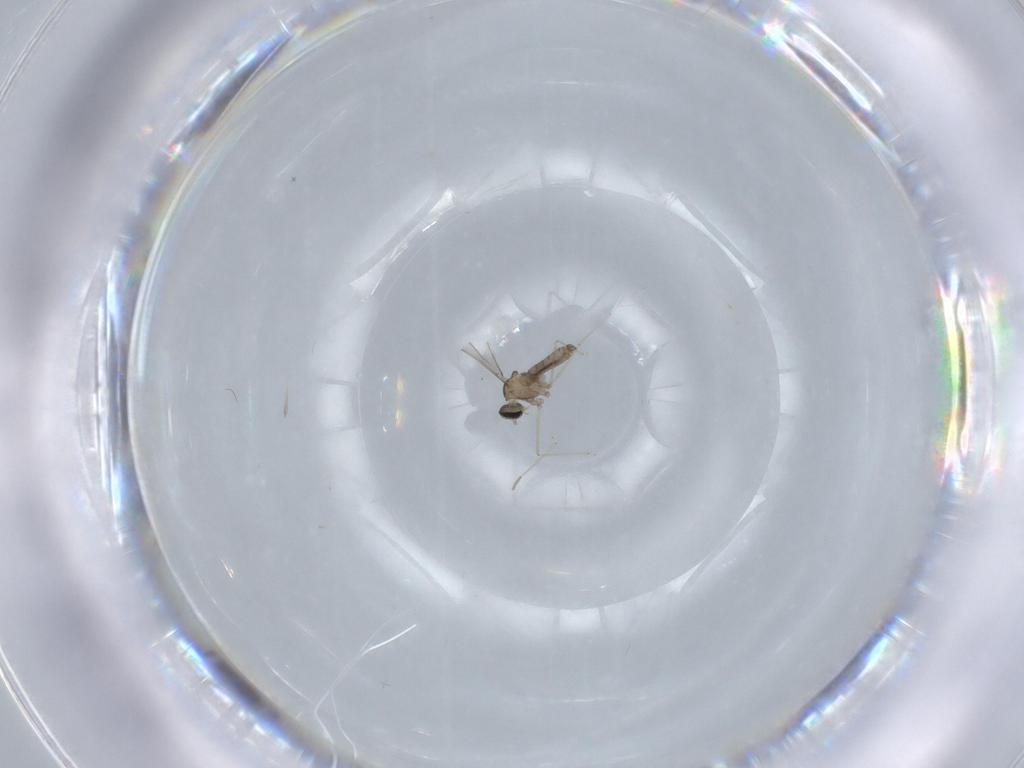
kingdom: Animalia
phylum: Arthropoda
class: Insecta
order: Diptera
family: Cecidomyiidae
